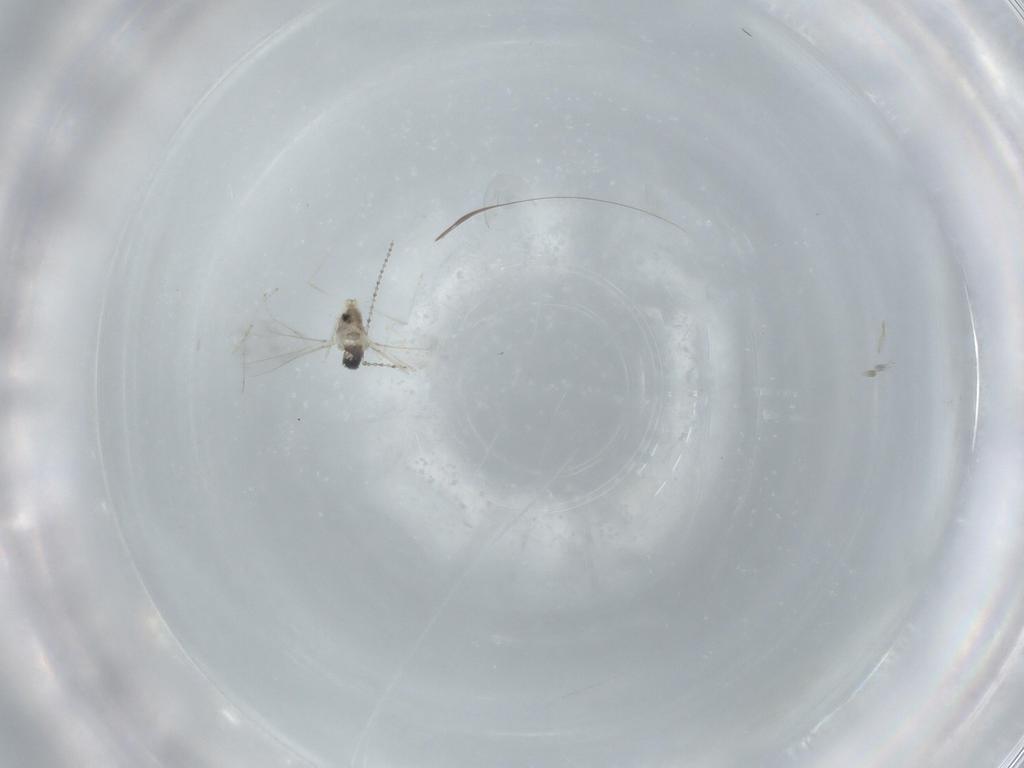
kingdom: Animalia
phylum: Arthropoda
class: Insecta
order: Diptera
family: Cecidomyiidae
